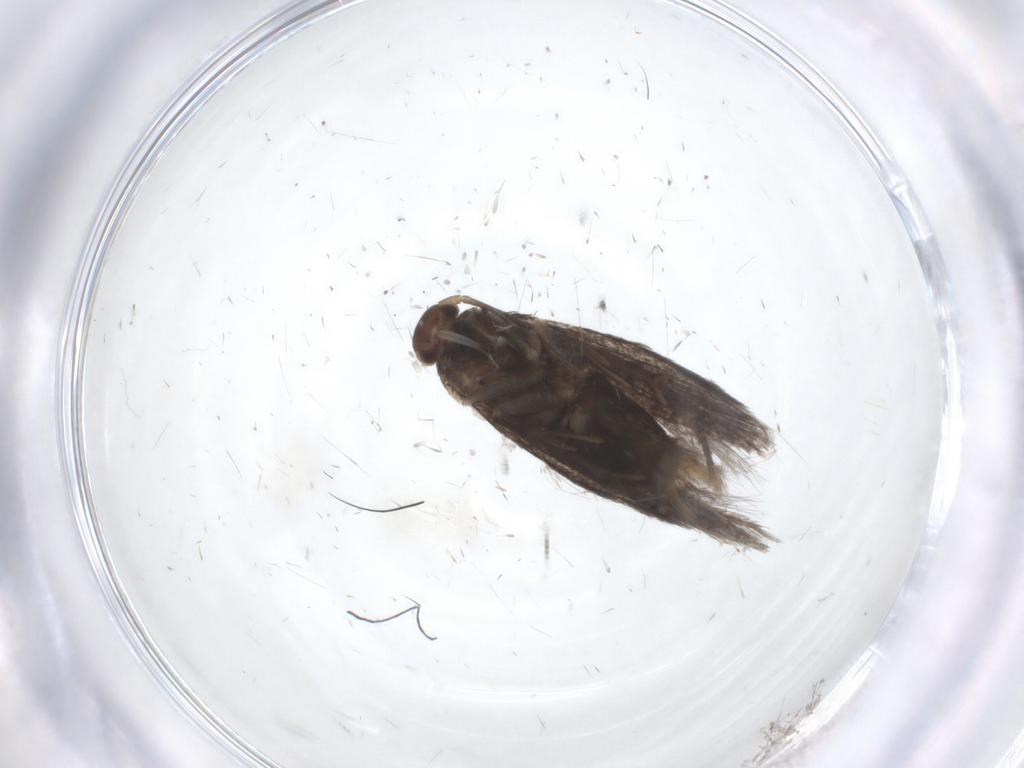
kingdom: Animalia
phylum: Arthropoda
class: Insecta
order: Lepidoptera
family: Elachistidae
